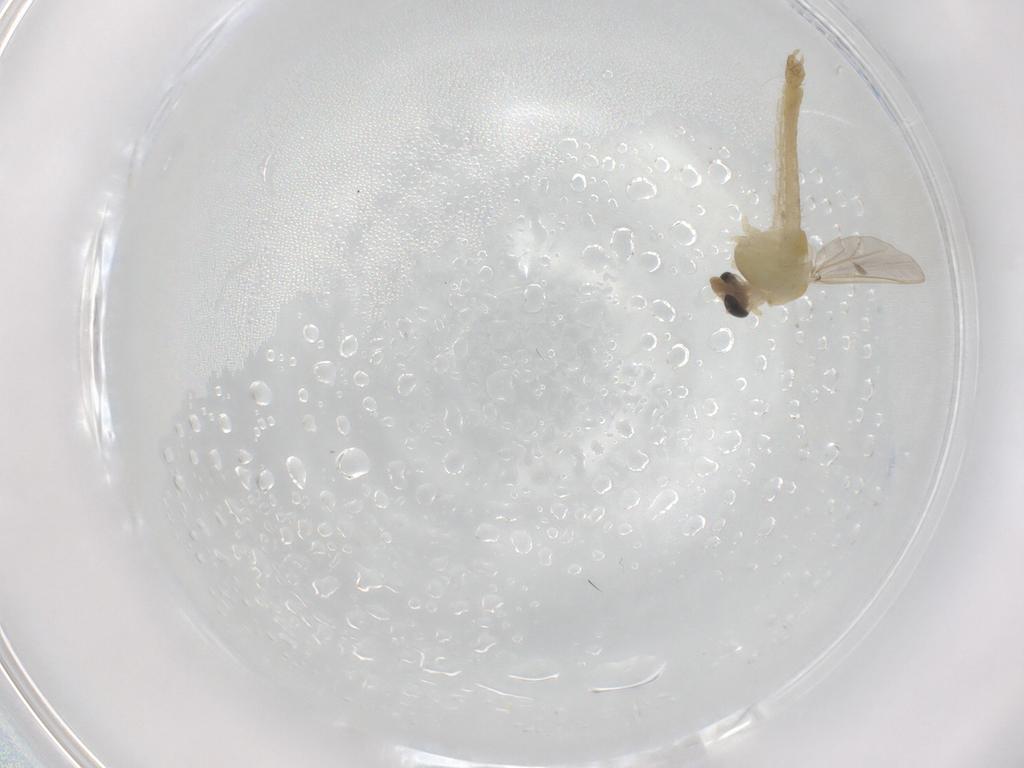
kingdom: Animalia
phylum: Arthropoda
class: Insecta
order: Diptera
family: Chironomidae
